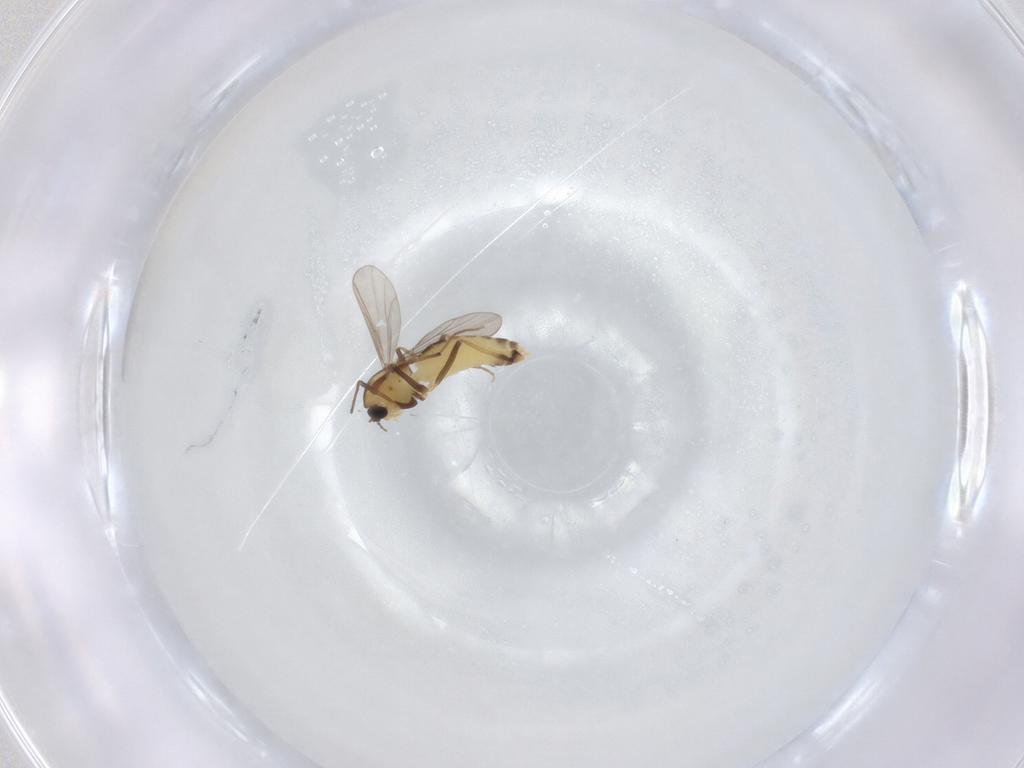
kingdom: Animalia
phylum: Arthropoda
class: Insecta
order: Diptera
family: Chironomidae
